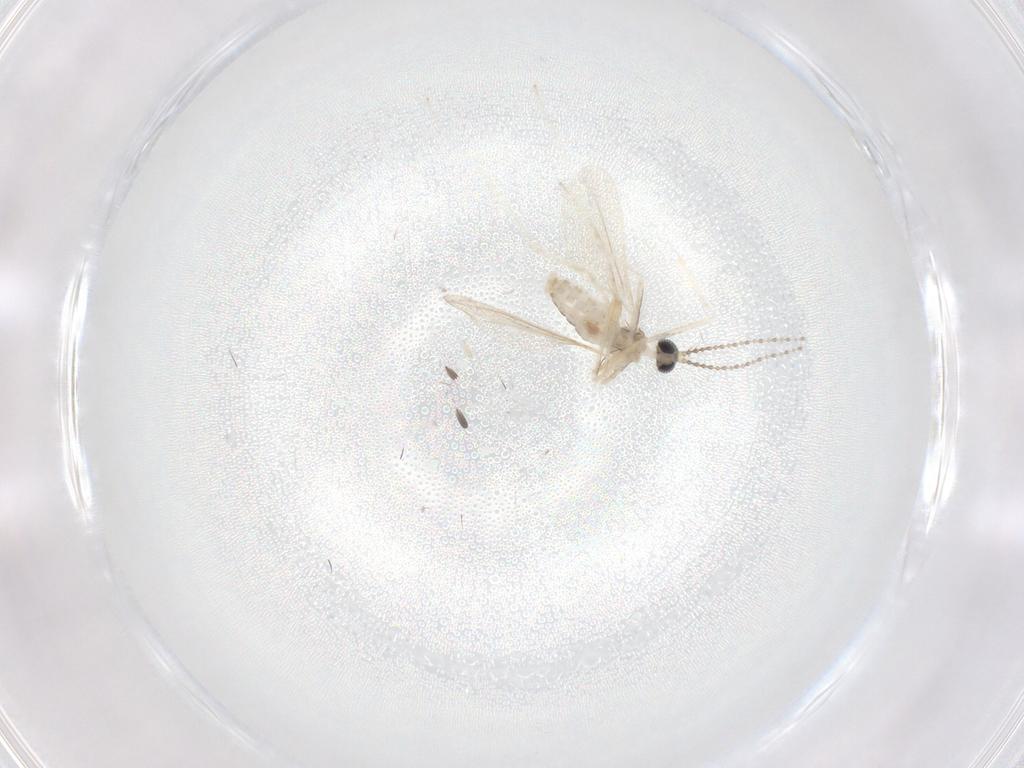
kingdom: Animalia
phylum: Arthropoda
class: Insecta
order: Diptera
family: Cecidomyiidae
